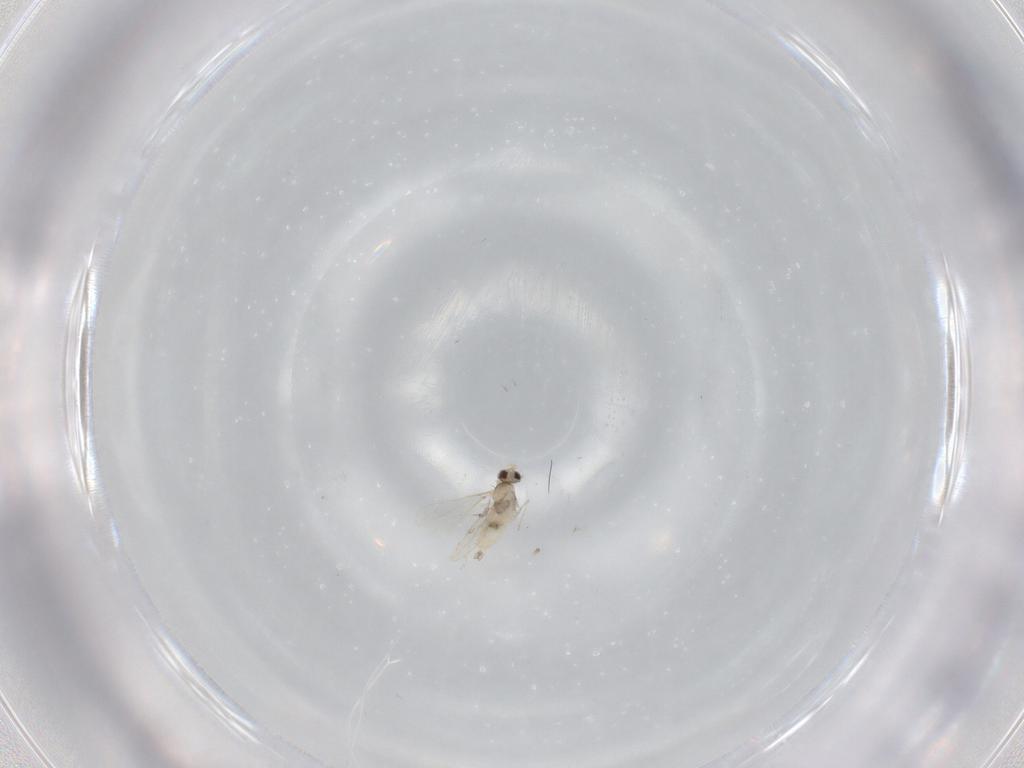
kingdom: Animalia
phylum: Arthropoda
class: Insecta
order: Diptera
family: Cecidomyiidae
